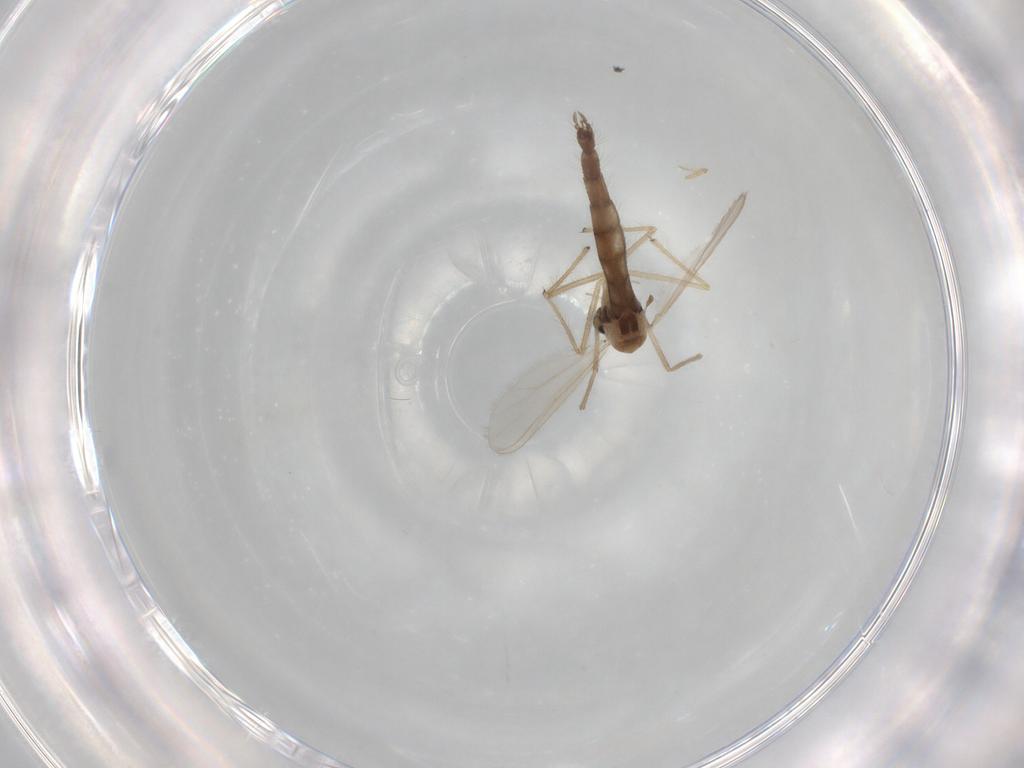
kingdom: Animalia
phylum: Arthropoda
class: Insecta
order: Diptera
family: Chironomidae
